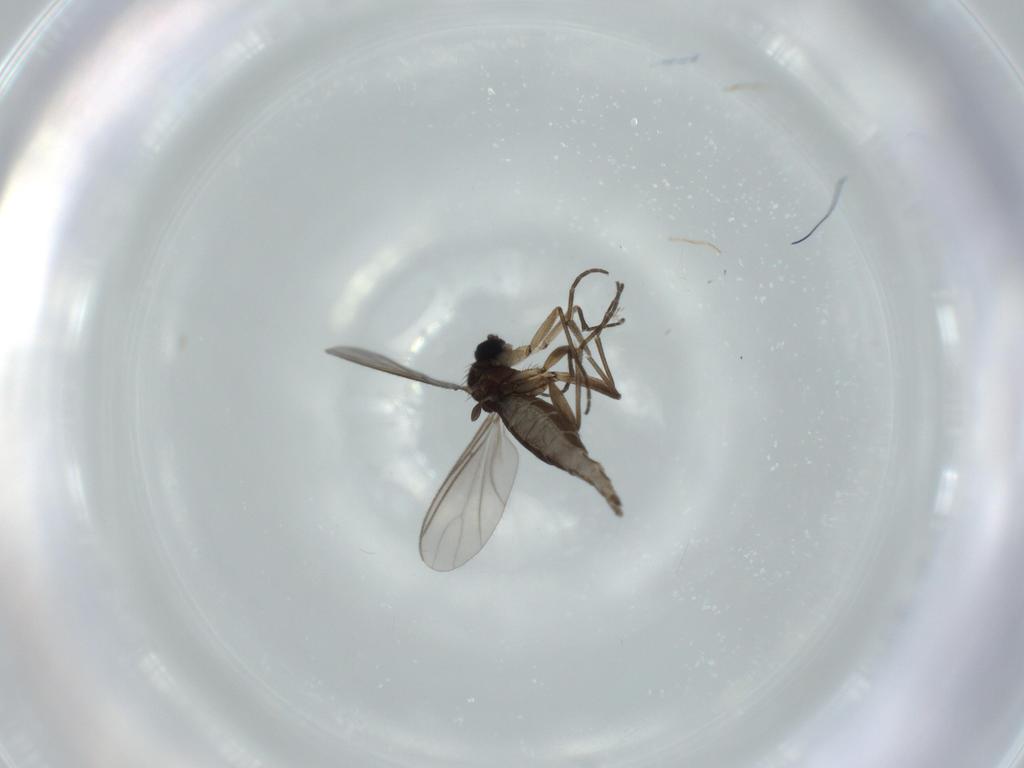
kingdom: Animalia
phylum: Arthropoda
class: Insecta
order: Diptera
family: Sciaridae
